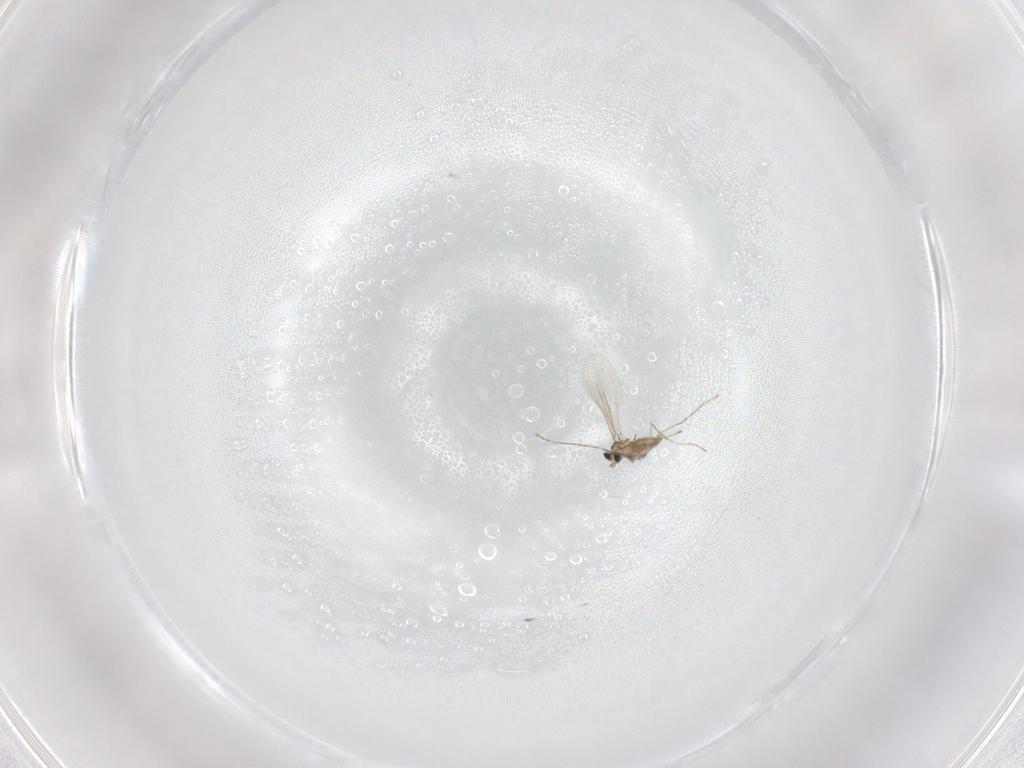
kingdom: Animalia
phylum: Arthropoda
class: Insecta
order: Diptera
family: Cecidomyiidae
